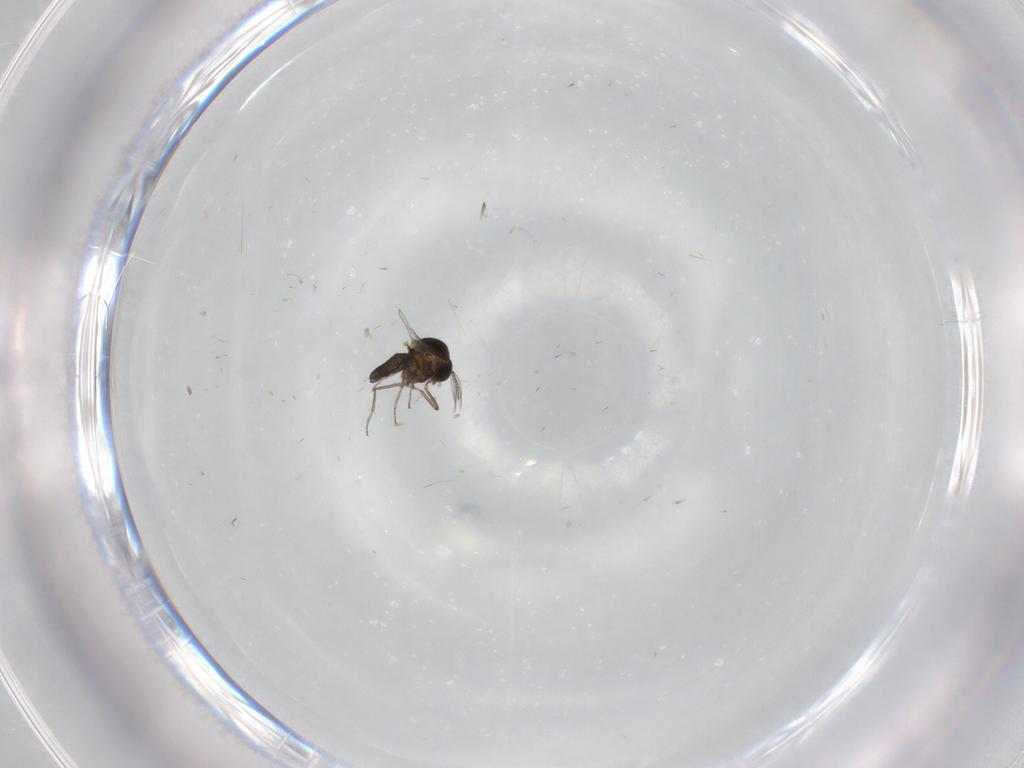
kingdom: Animalia
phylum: Arthropoda
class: Insecta
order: Diptera
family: Ceratopogonidae
